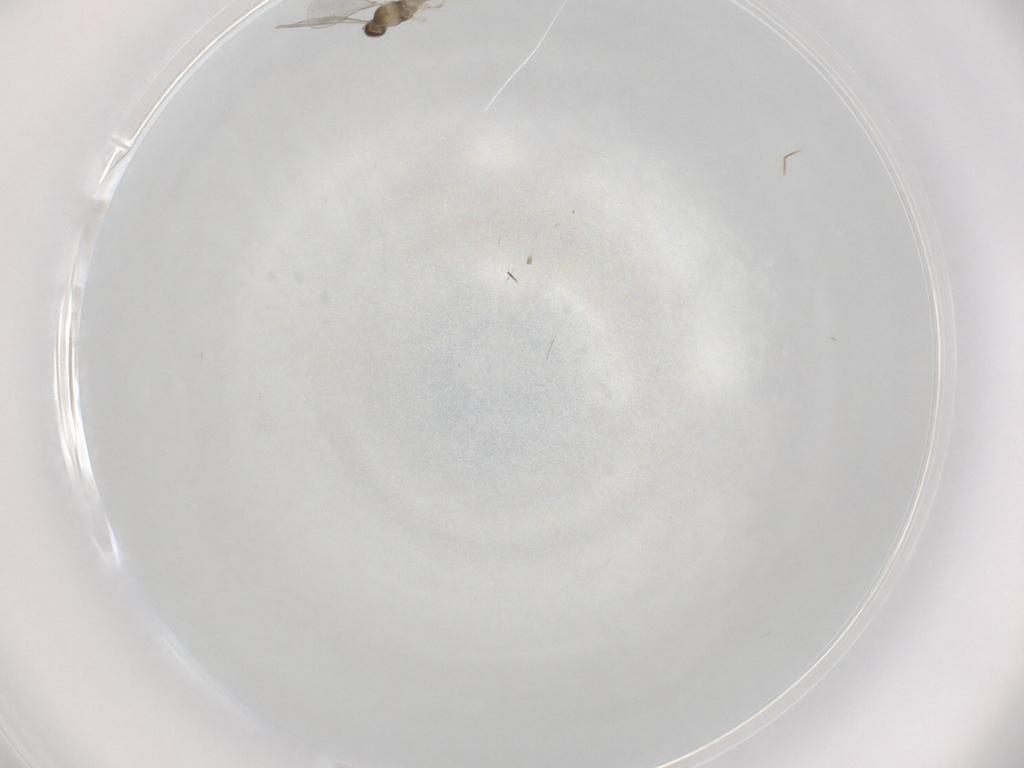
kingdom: Animalia
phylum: Arthropoda
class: Insecta
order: Diptera
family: Cecidomyiidae
